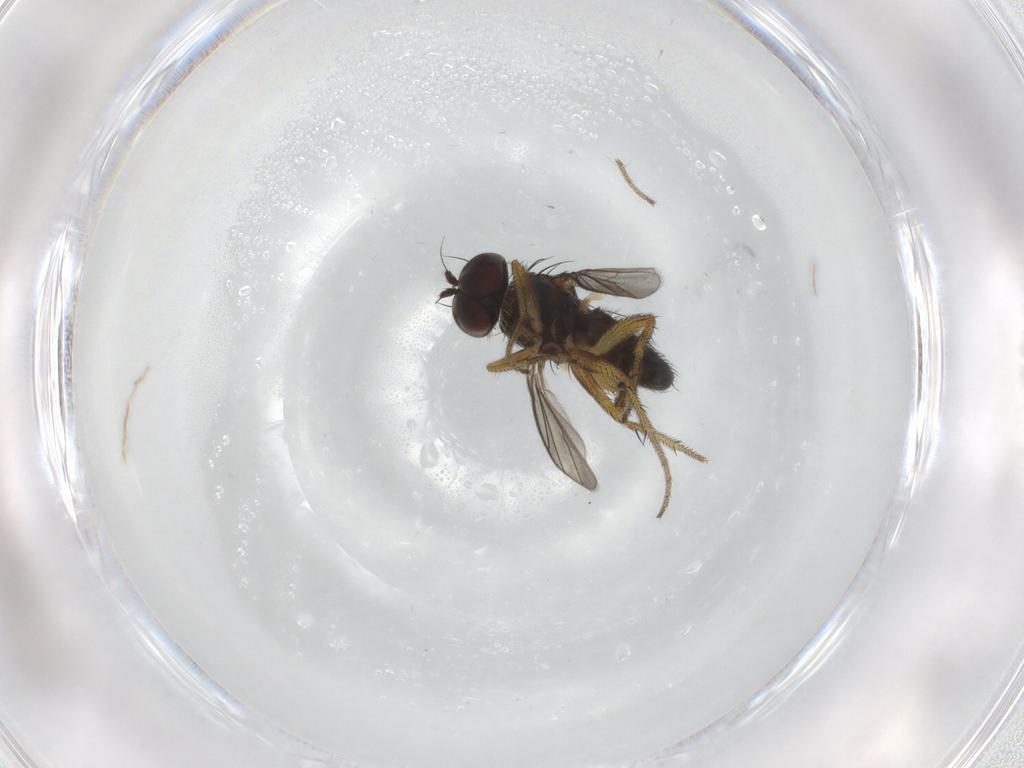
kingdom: Animalia
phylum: Arthropoda
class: Insecta
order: Diptera
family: Dolichopodidae
